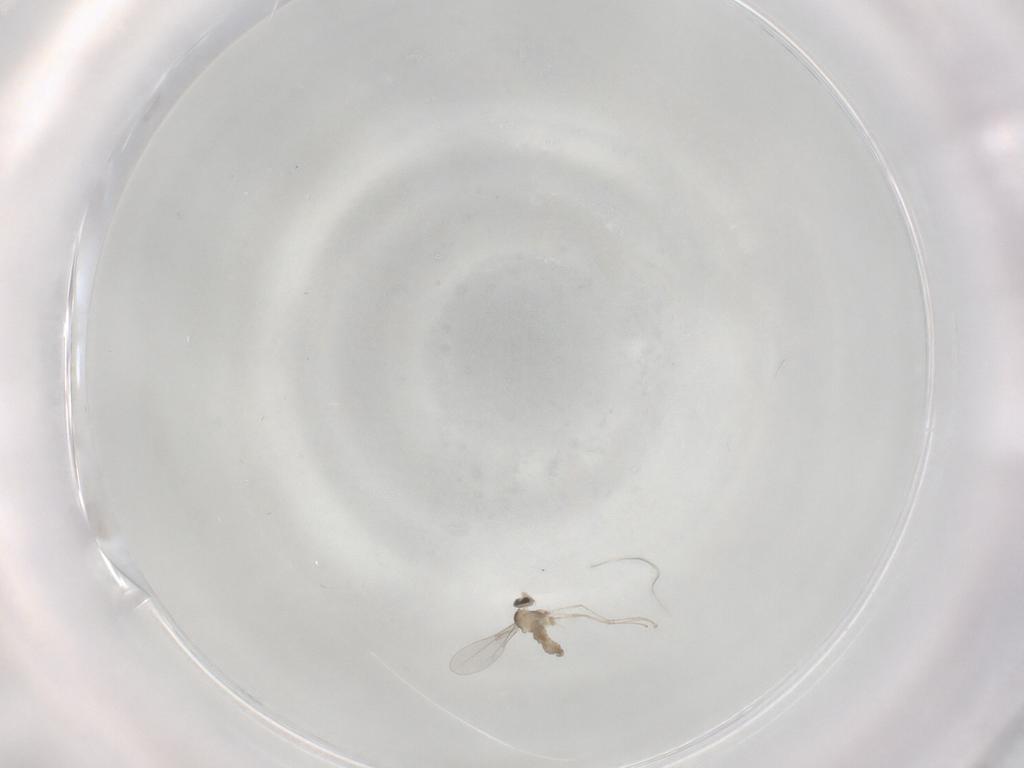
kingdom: Animalia
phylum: Arthropoda
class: Insecta
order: Diptera
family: Cecidomyiidae
